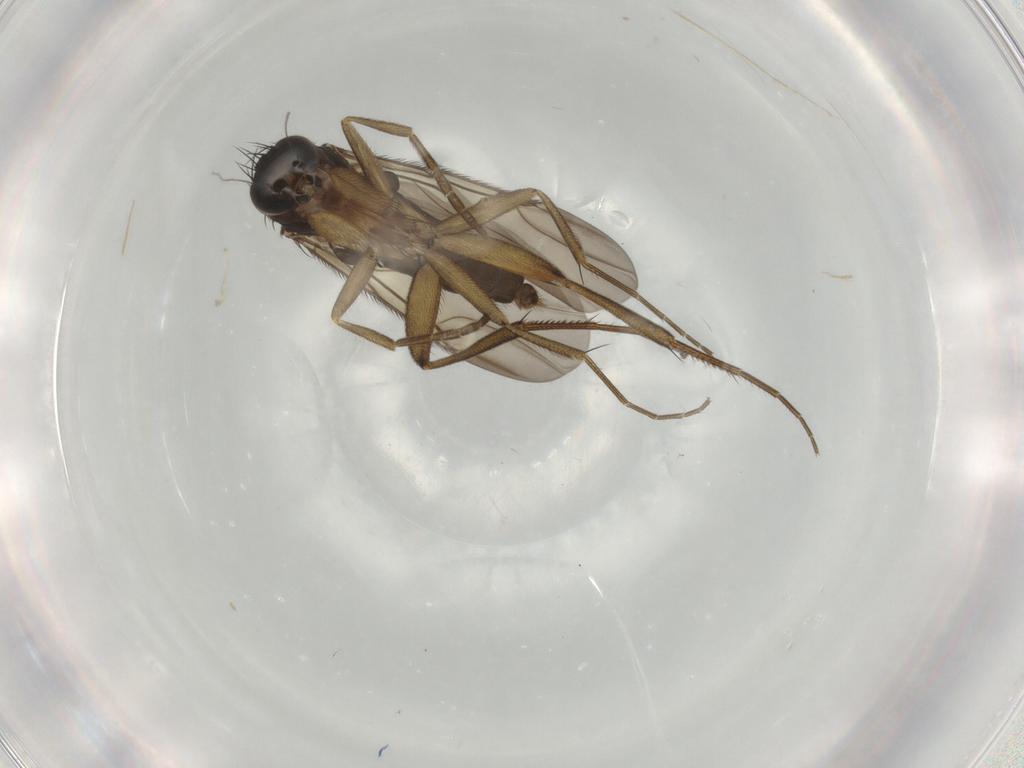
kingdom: Animalia
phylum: Arthropoda
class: Insecta
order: Diptera
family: Phoridae
